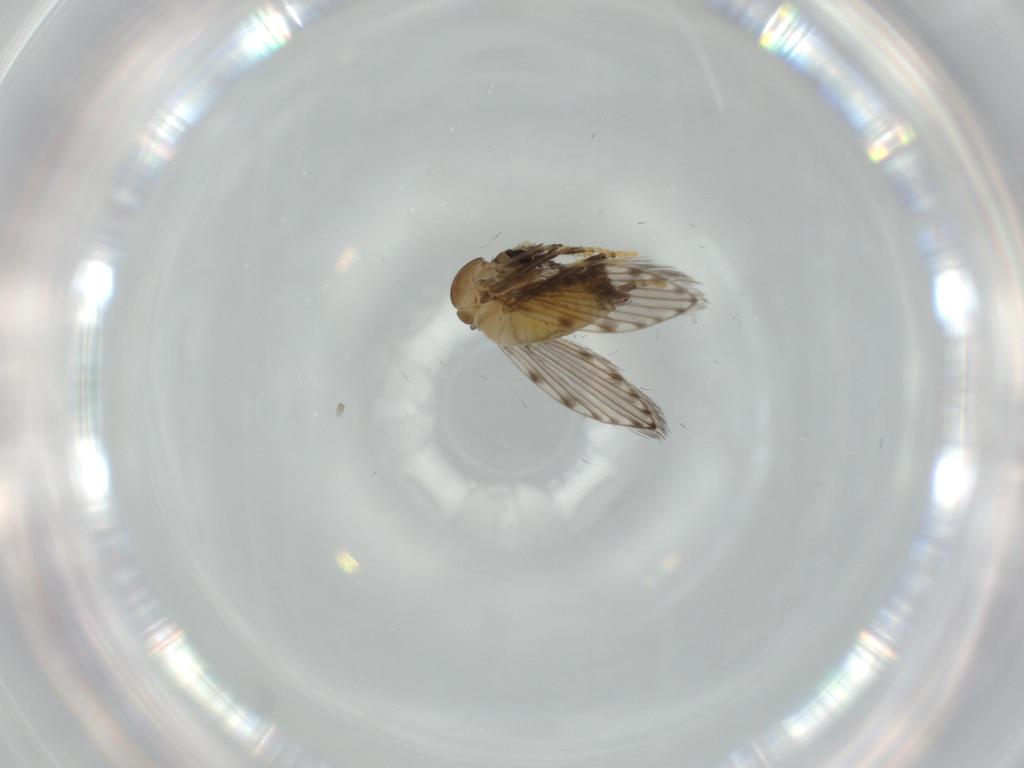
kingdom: Animalia
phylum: Arthropoda
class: Insecta
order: Diptera
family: Psychodidae
